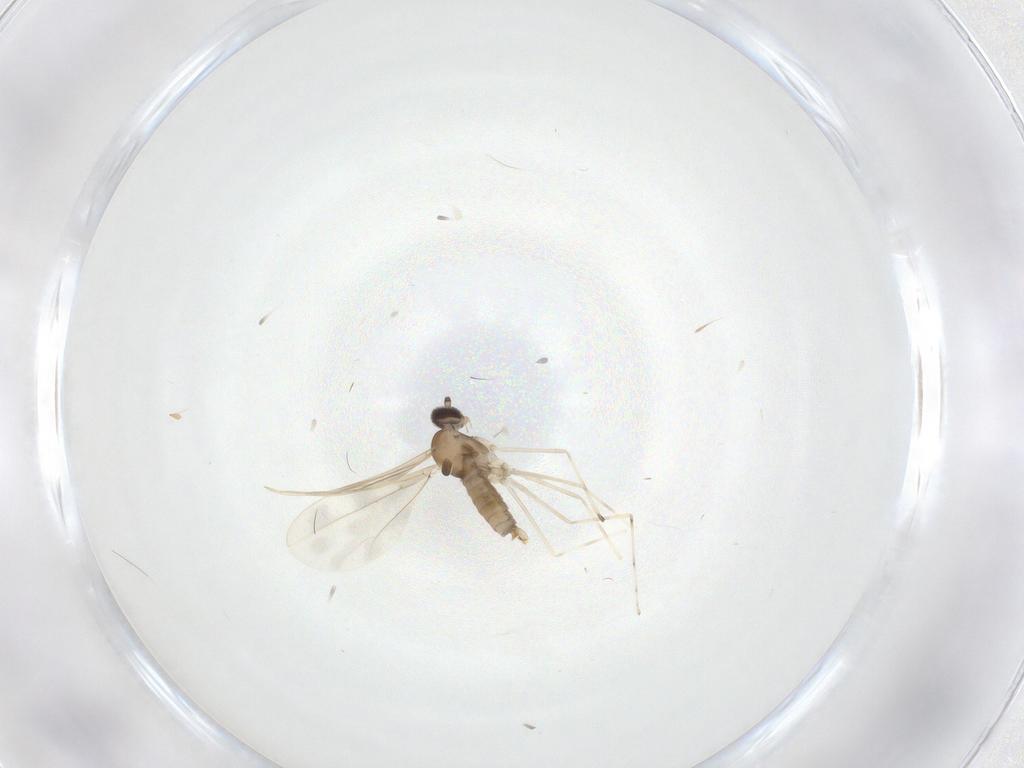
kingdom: Animalia
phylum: Arthropoda
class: Insecta
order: Diptera
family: Cecidomyiidae
